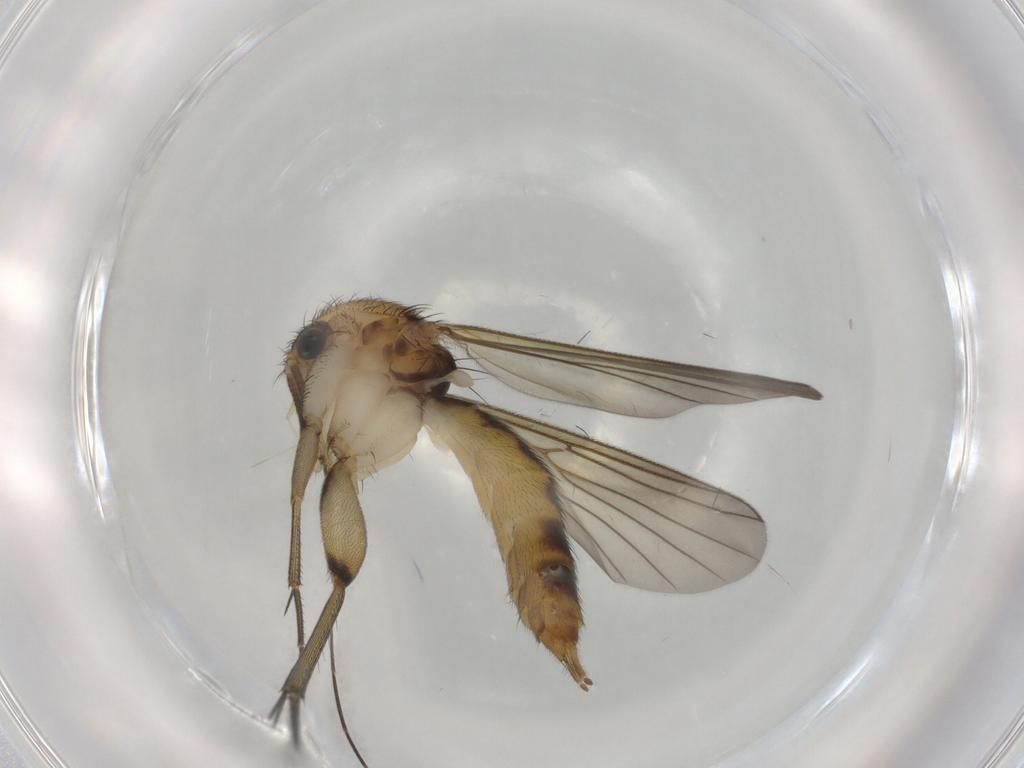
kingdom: Animalia
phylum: Arthropoda
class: Insecta
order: Diptera
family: Mycetophilidae
